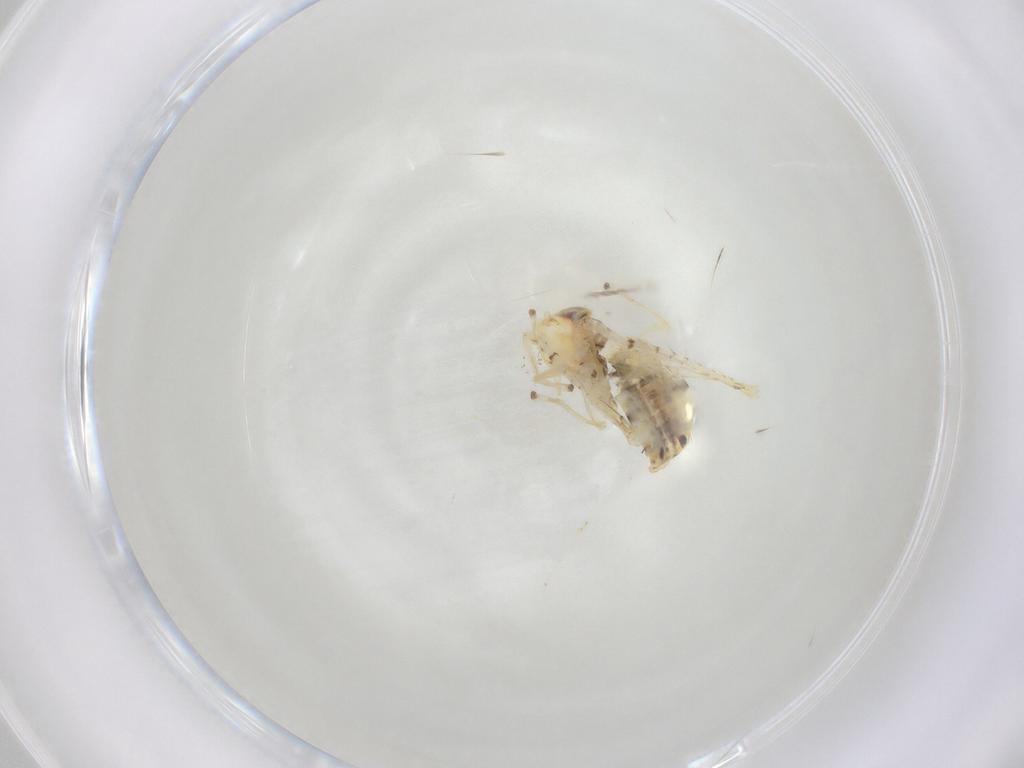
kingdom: Animalia
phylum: Arthropoda
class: Insecta
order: Hemiptera
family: Cicadellidae
